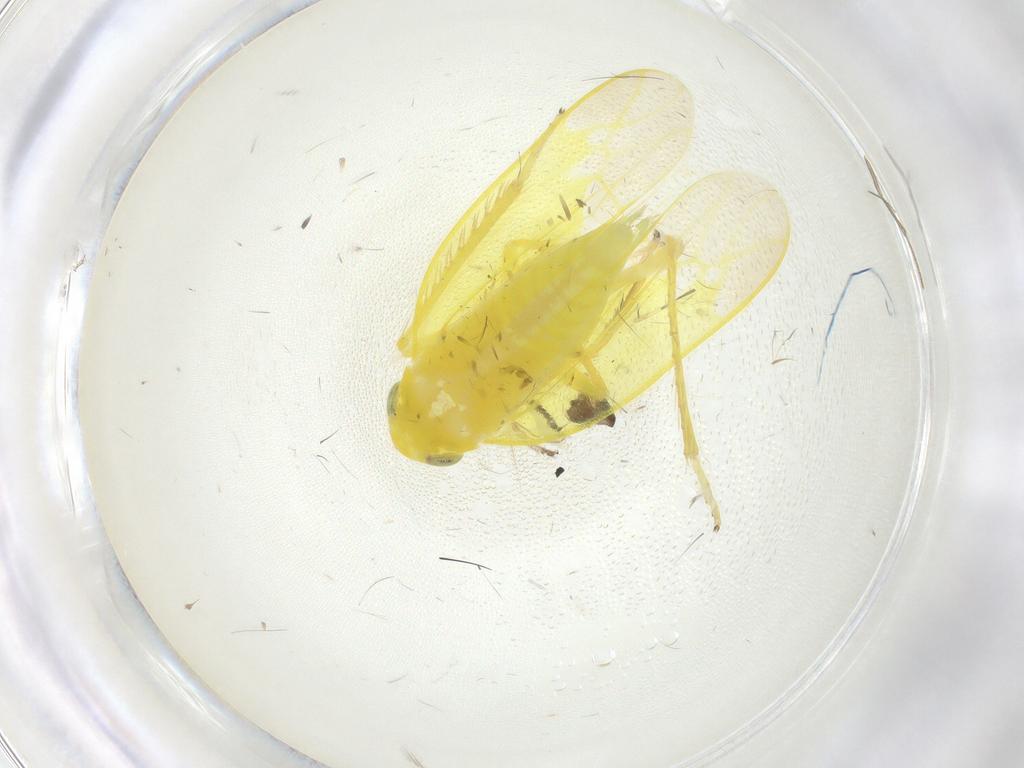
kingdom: Animalia
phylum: Arthropoda
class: Insecta
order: Hemiptera
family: Cicadellidae
